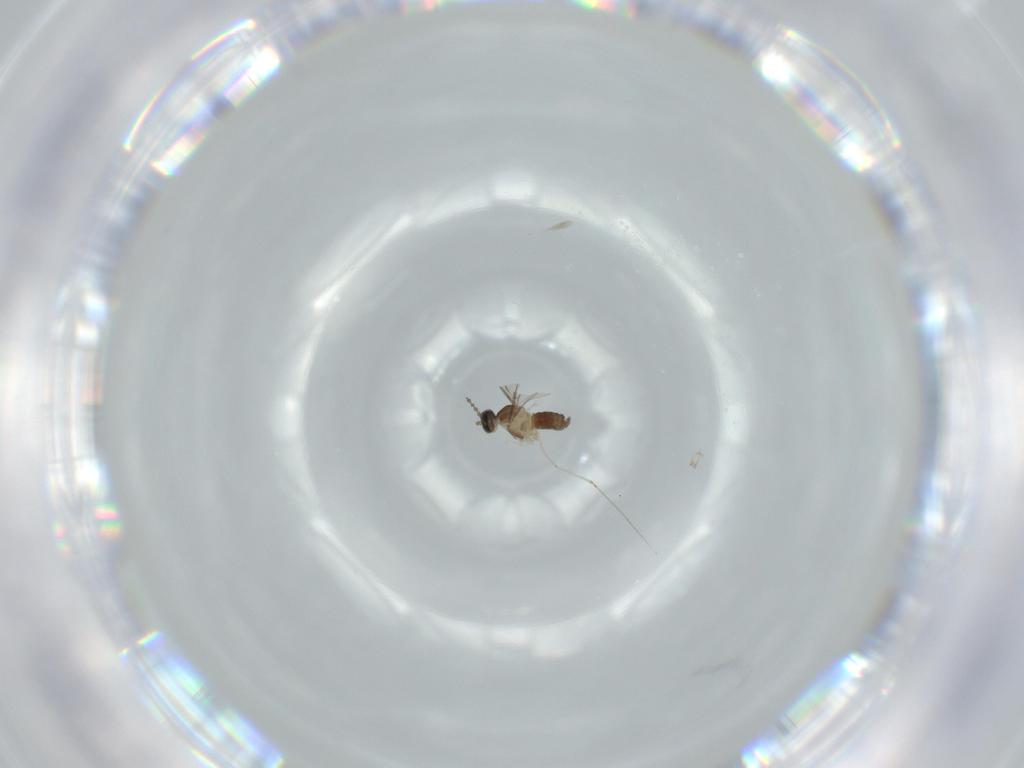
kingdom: Animalia
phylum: Arthropoda
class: Insecta
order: Diptera
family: Cecidomyiidae
